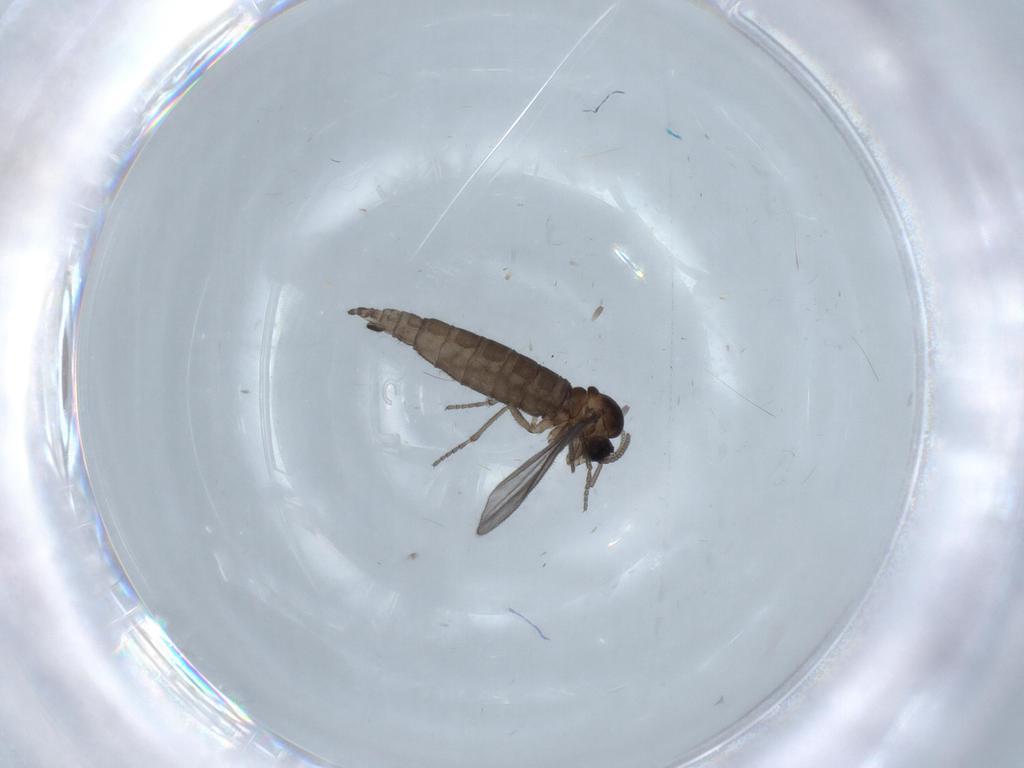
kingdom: Animalia
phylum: Arthropoda
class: Insecta
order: Diptera
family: Sciaridae
